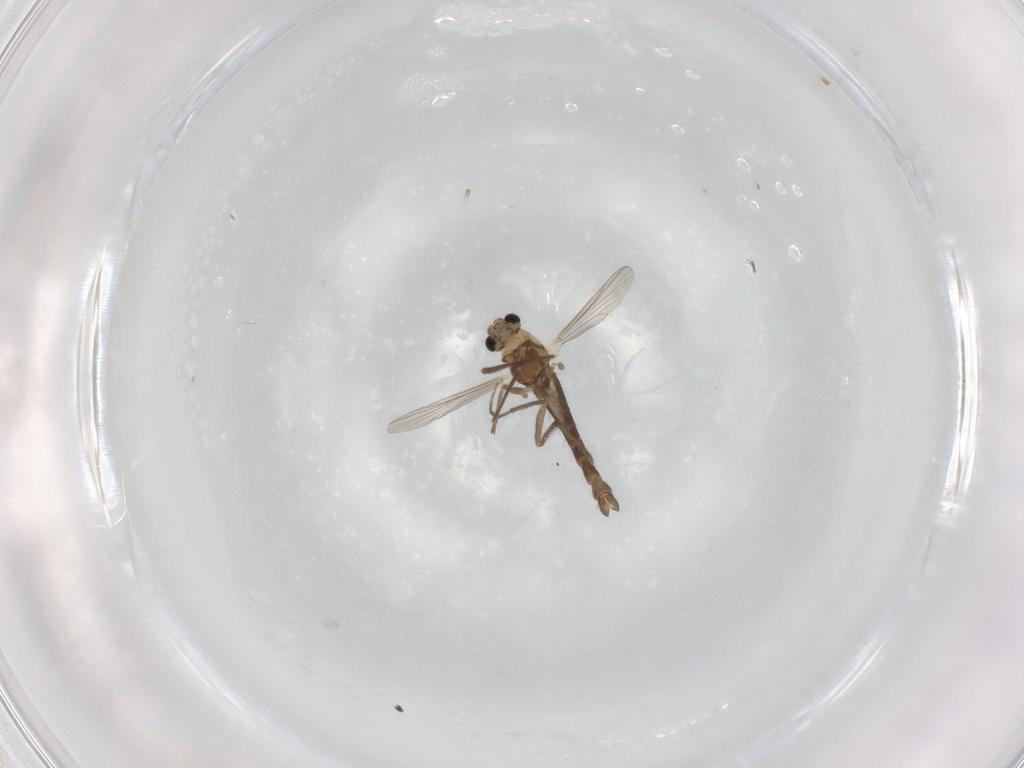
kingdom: Animalia
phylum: Arthropoda
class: Insecta
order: Diptera
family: Chironomidae
